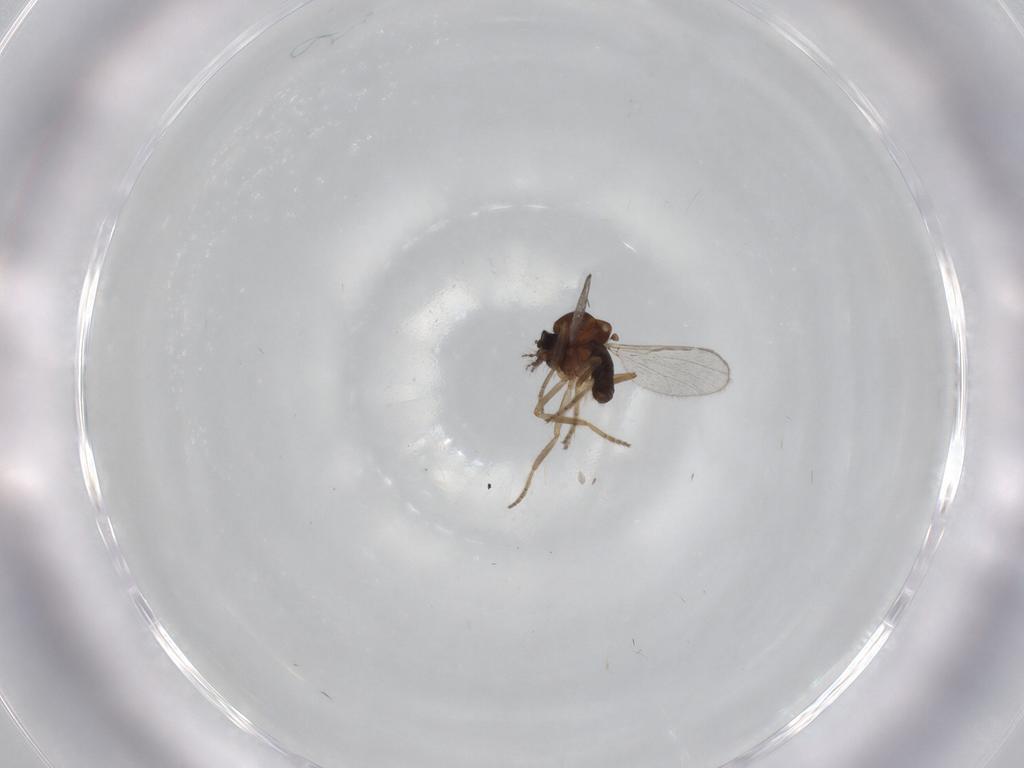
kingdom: Animalia
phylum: Arthropoda
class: Insecta
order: Diptera
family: Ceratopogonidae
